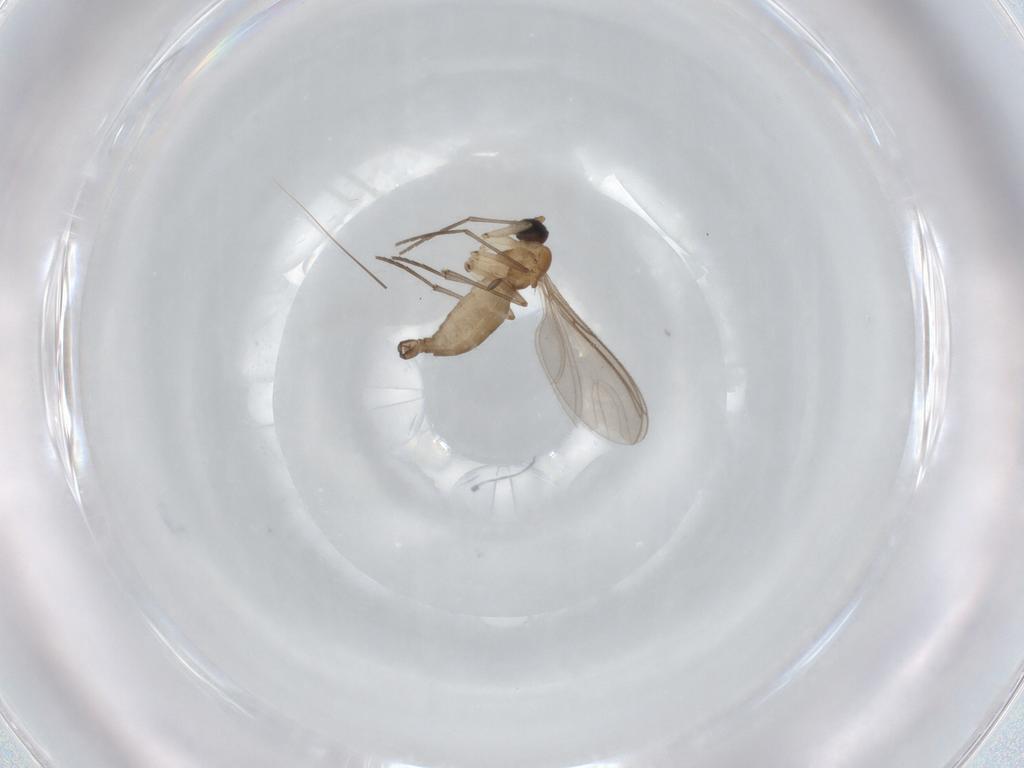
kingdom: Animalia
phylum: Arthropoda
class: Insecta
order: Diptera
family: Sciaridae
